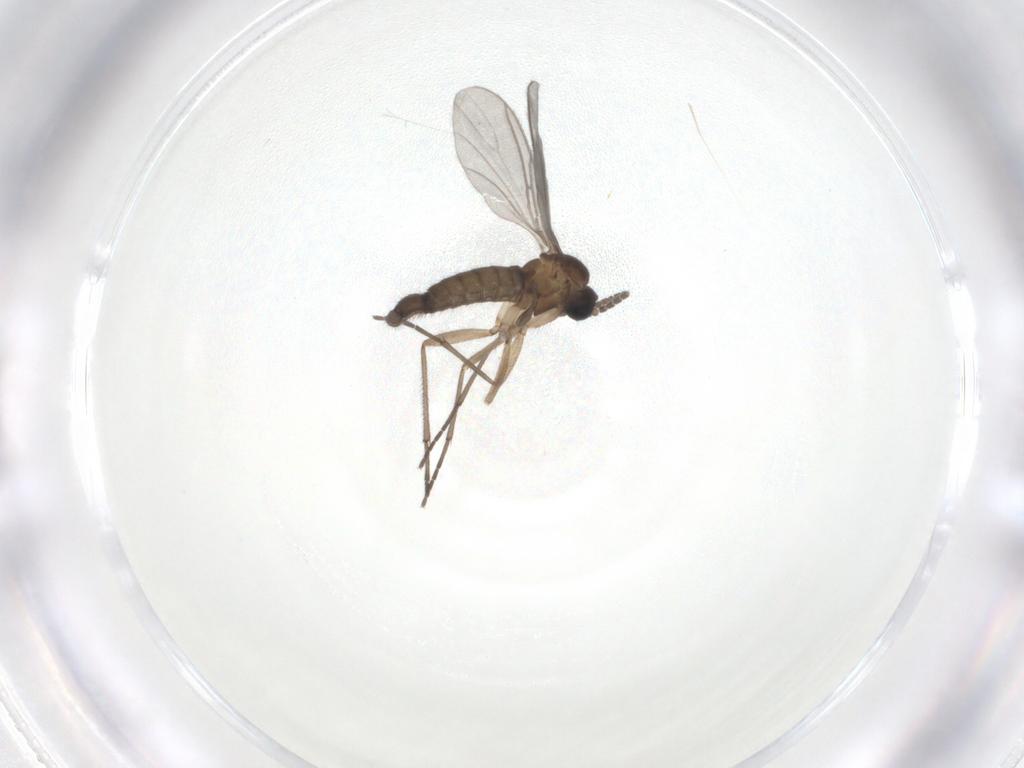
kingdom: Animalia
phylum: Arthropoda
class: Insecta
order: Diptera
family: Sciaridae
